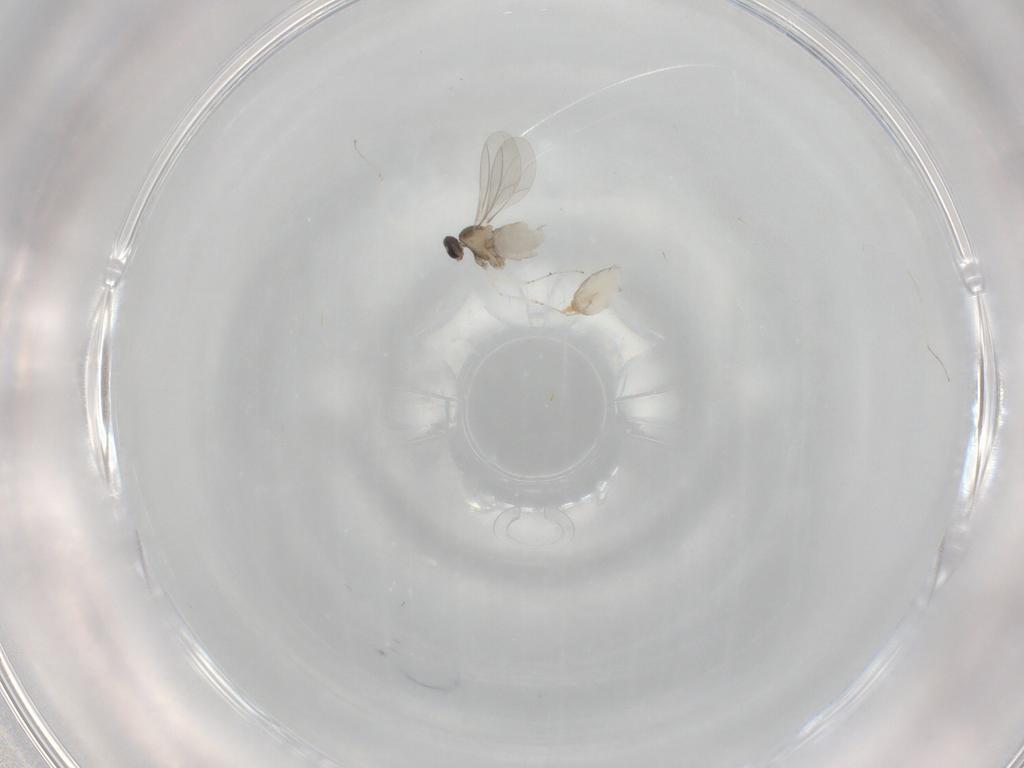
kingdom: Animalia
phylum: Arthropoda
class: Insecta
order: Diptera
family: Cecidomyiidae
